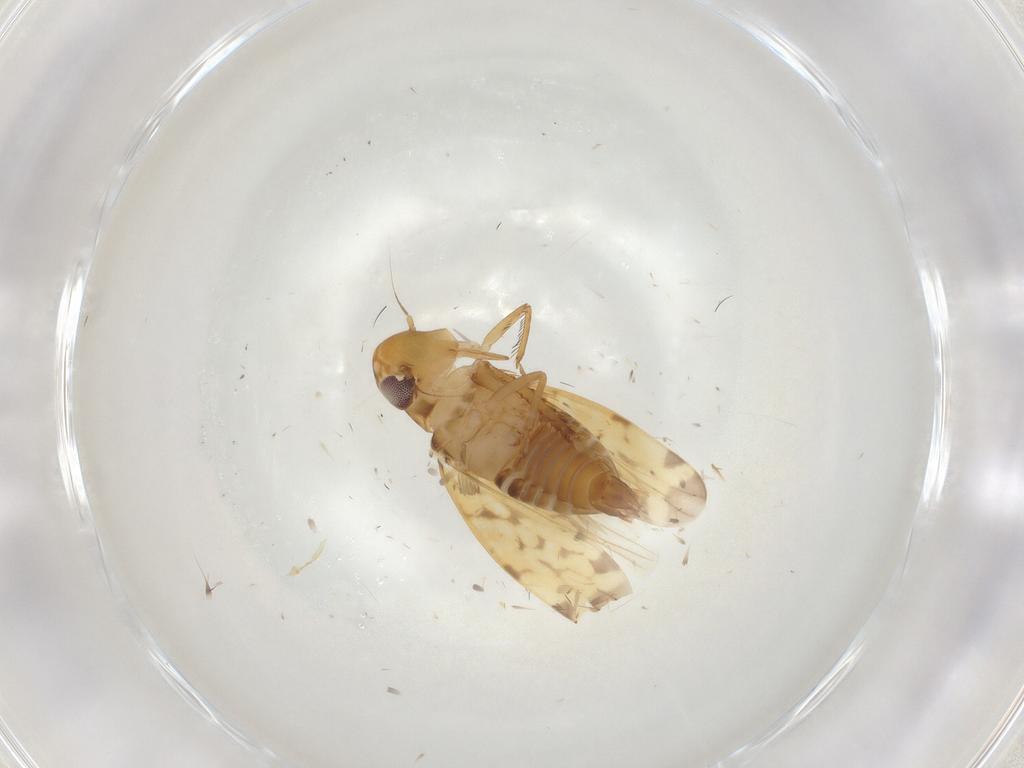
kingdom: Animalia
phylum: Arthropoda
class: Insecta
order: Hemiptera
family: Cicadellidae
